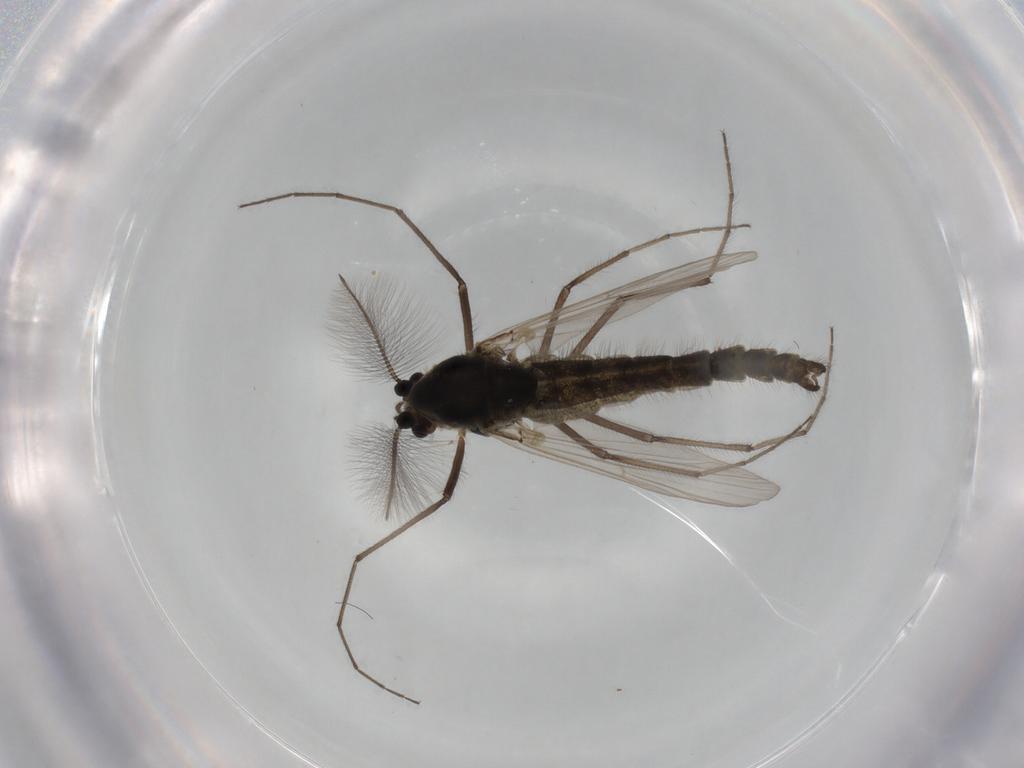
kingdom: Animalia
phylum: Arthropoda
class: Insecta
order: Diptera
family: Chironomidae
